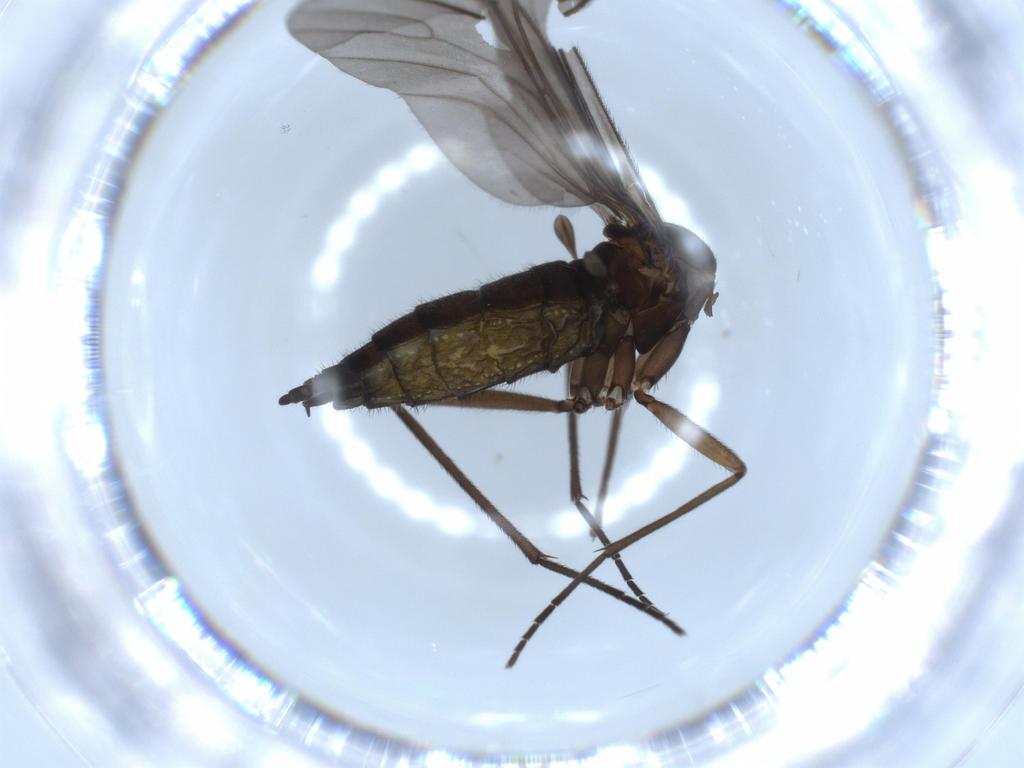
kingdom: Animalia
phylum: Arthropoda
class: Insecta
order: Diptera
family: Sciaridae
